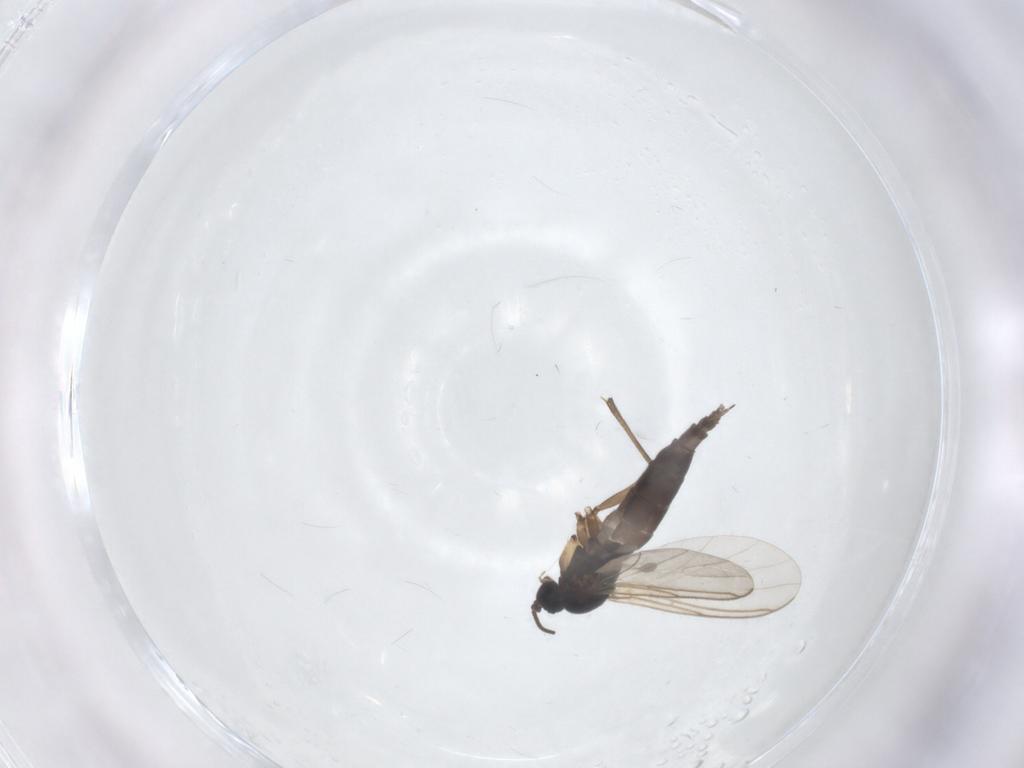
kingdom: Animalia
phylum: Arthropoda
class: Insecta
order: Diptera
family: Sciaridae
